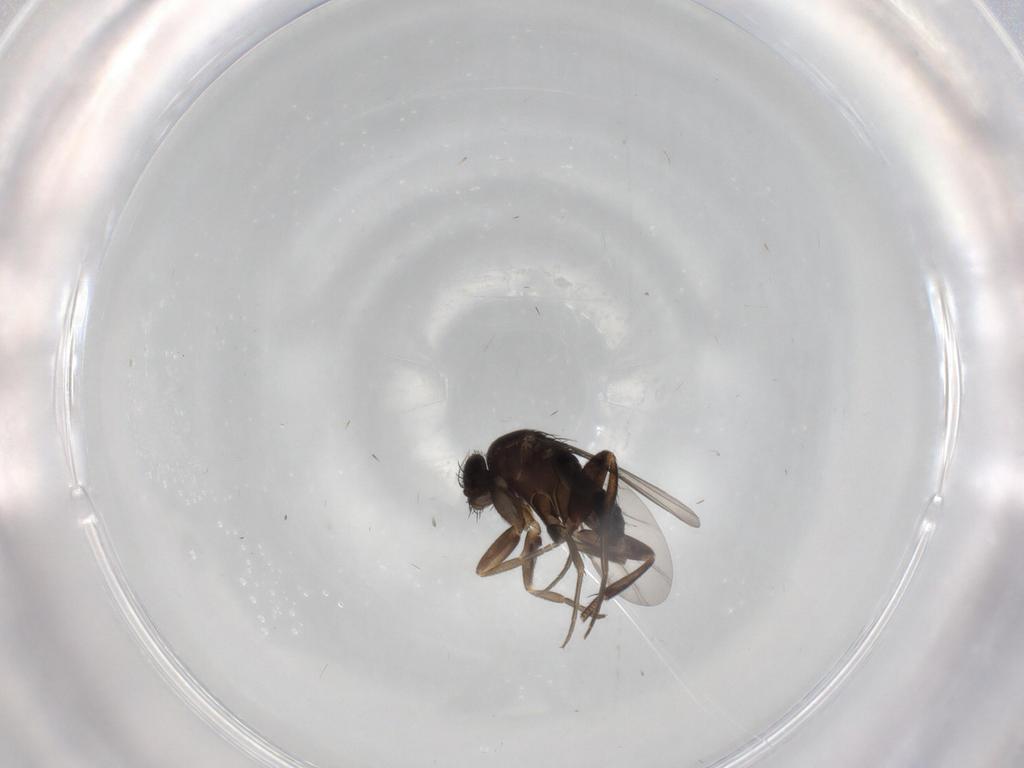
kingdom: Animalia
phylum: Arthropoda
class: Insecta
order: Diptera
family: Phoridae
